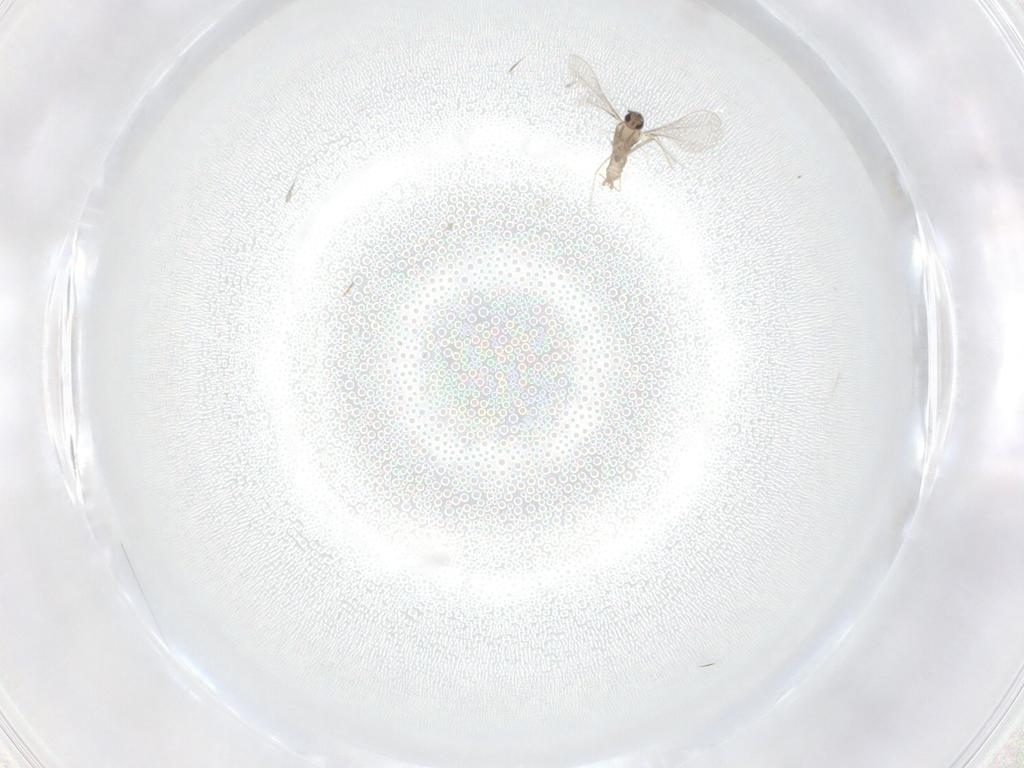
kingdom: Animalia
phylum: Arthropoda
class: Insecta
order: Diptera
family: Cecidomyiidae
